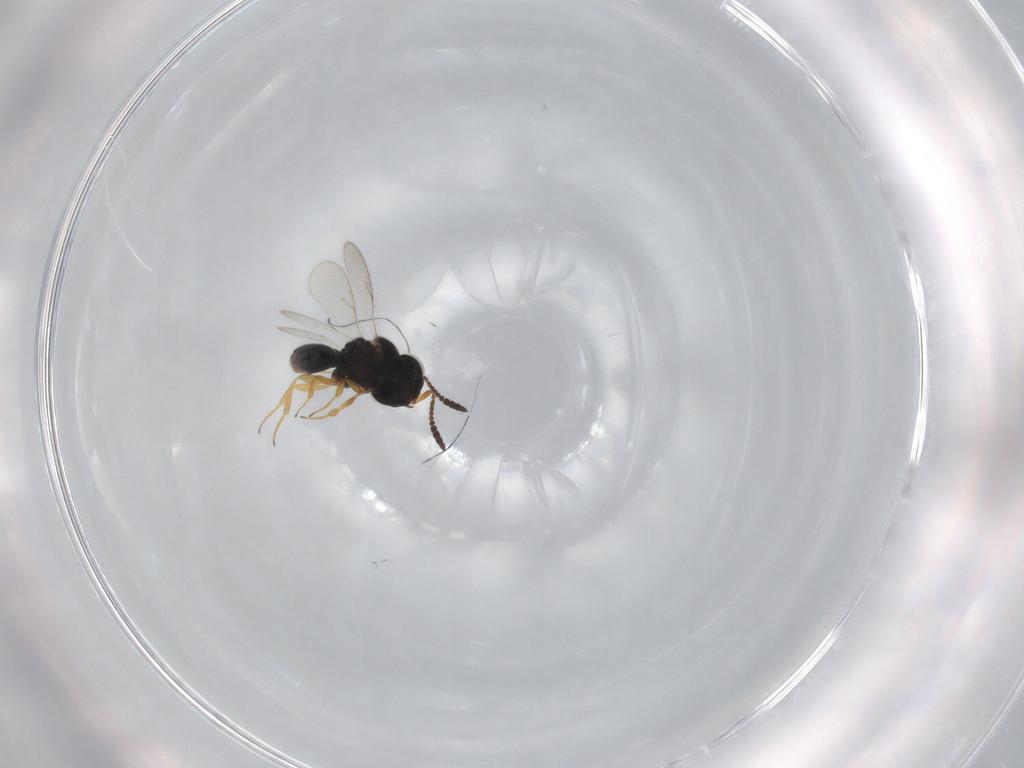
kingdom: Animalia
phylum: Arthropoda
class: Insecta
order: Hymenoptera
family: Scelionidae
